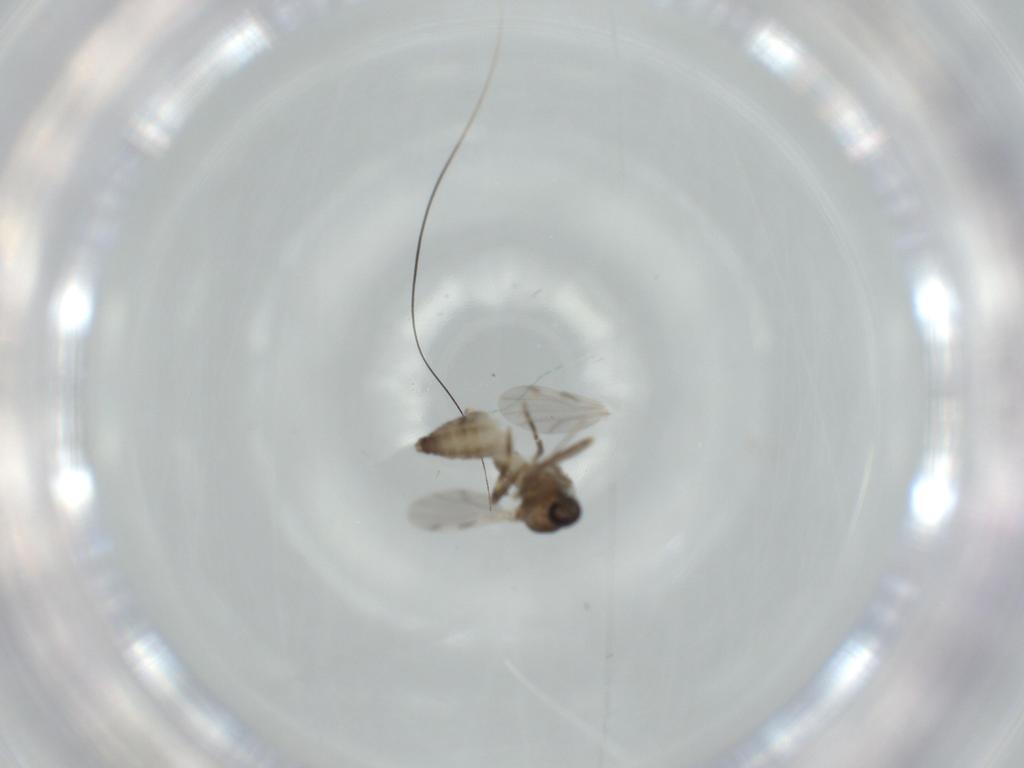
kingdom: Animalia
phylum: Arthropoda
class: Insecta
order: Diptera
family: Ceratopogonidae
